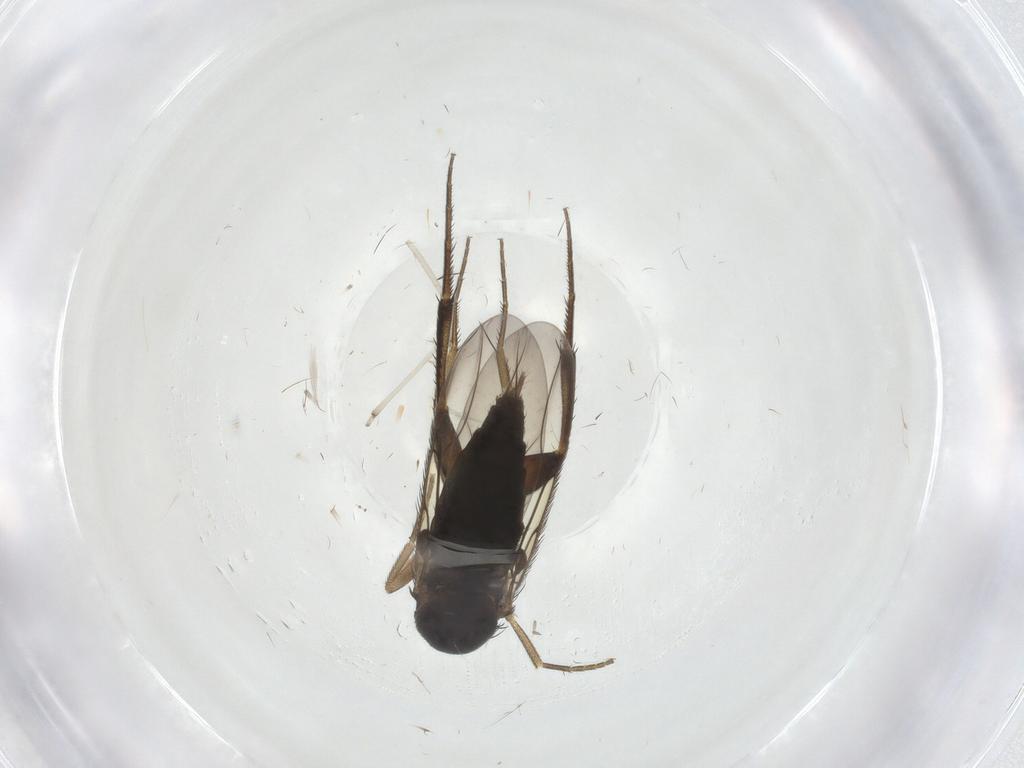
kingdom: Animalia
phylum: Arthropoda
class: Insecta
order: Diptera
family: Phoridae
